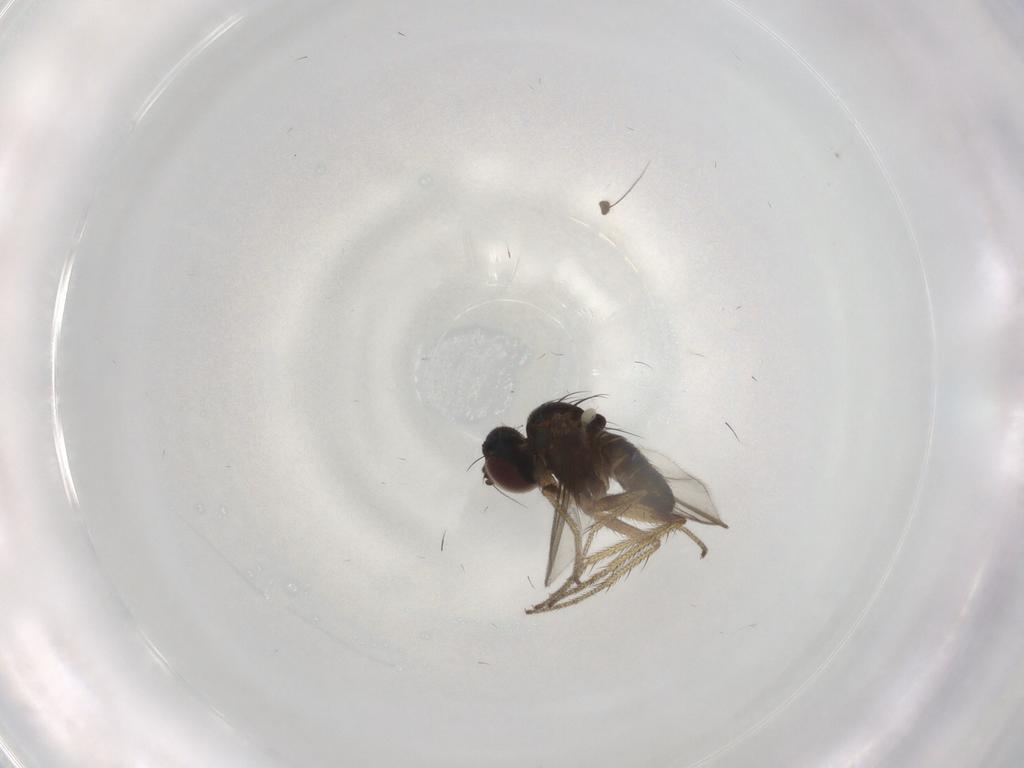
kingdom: Animalia
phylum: Arthropoda
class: Insecta
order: Diptera
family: Dolichopodidae
